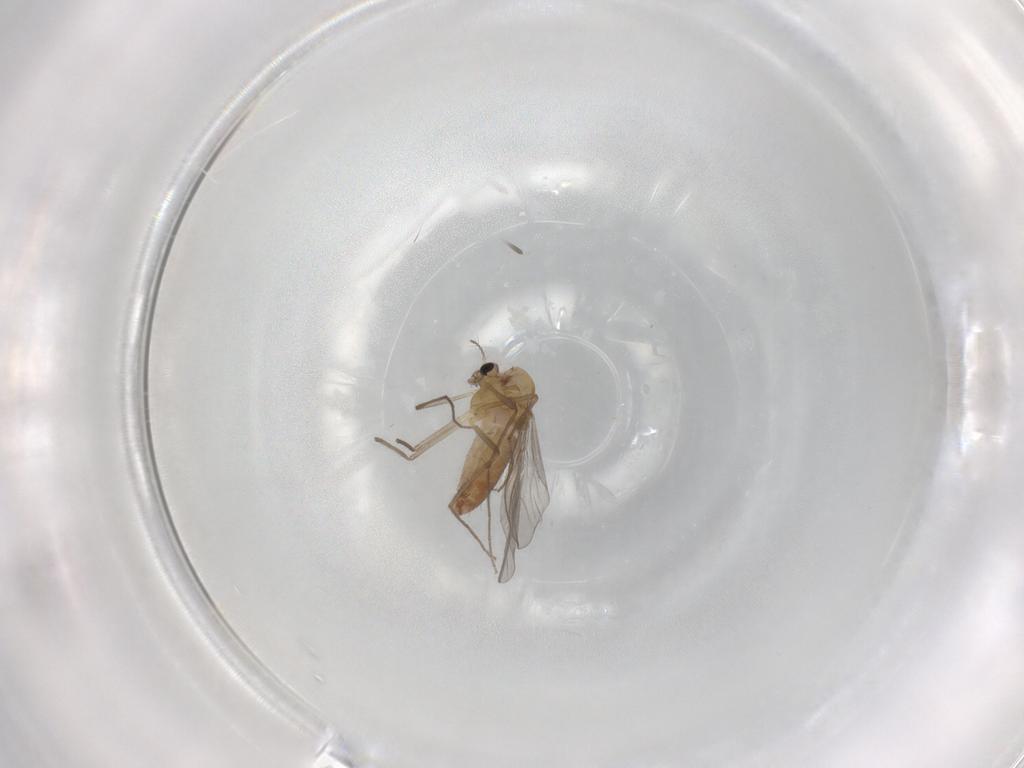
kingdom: Animalia
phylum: Arthropoda
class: Insecta
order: Diptera
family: Chironomidae
